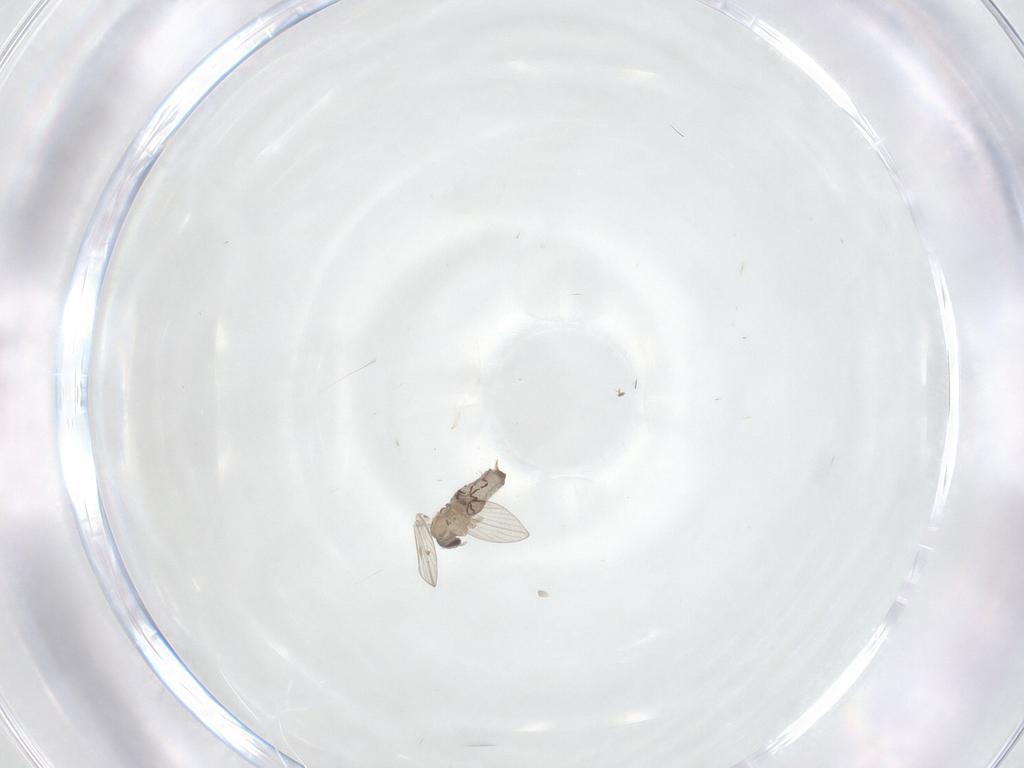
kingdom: Animalia
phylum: Arthropoda
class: Insecta
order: Diptera
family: Psychodidae
